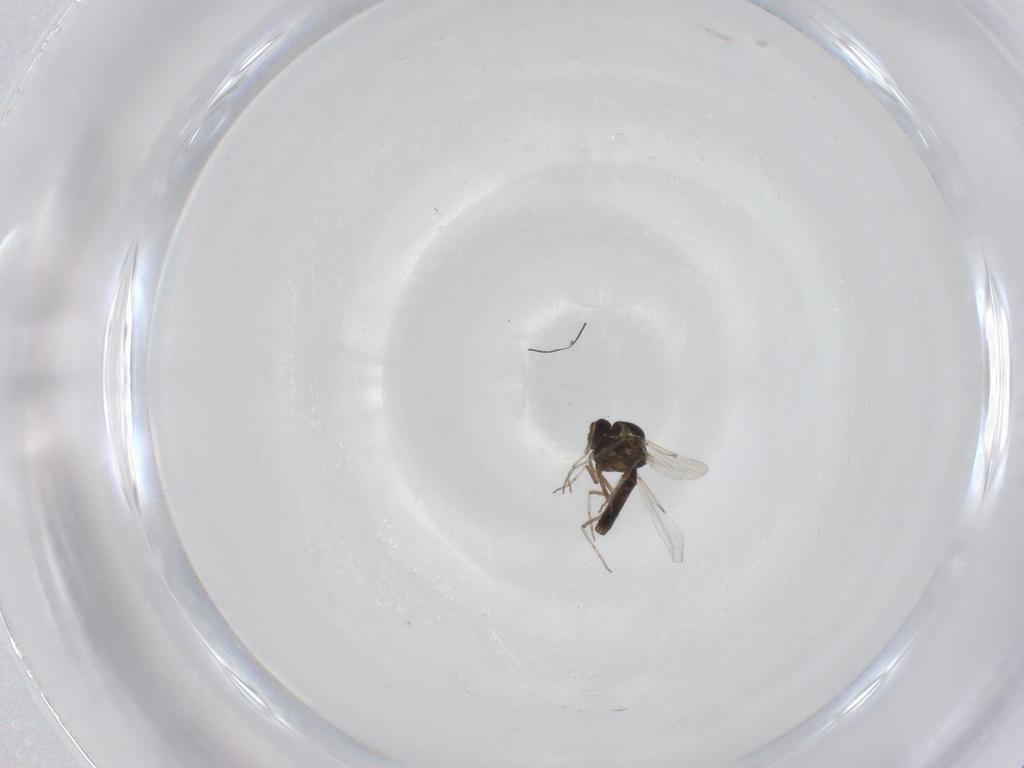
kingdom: Animalia
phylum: Arthropoda
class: Insecta
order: Diptera
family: Ceratopogonidae
